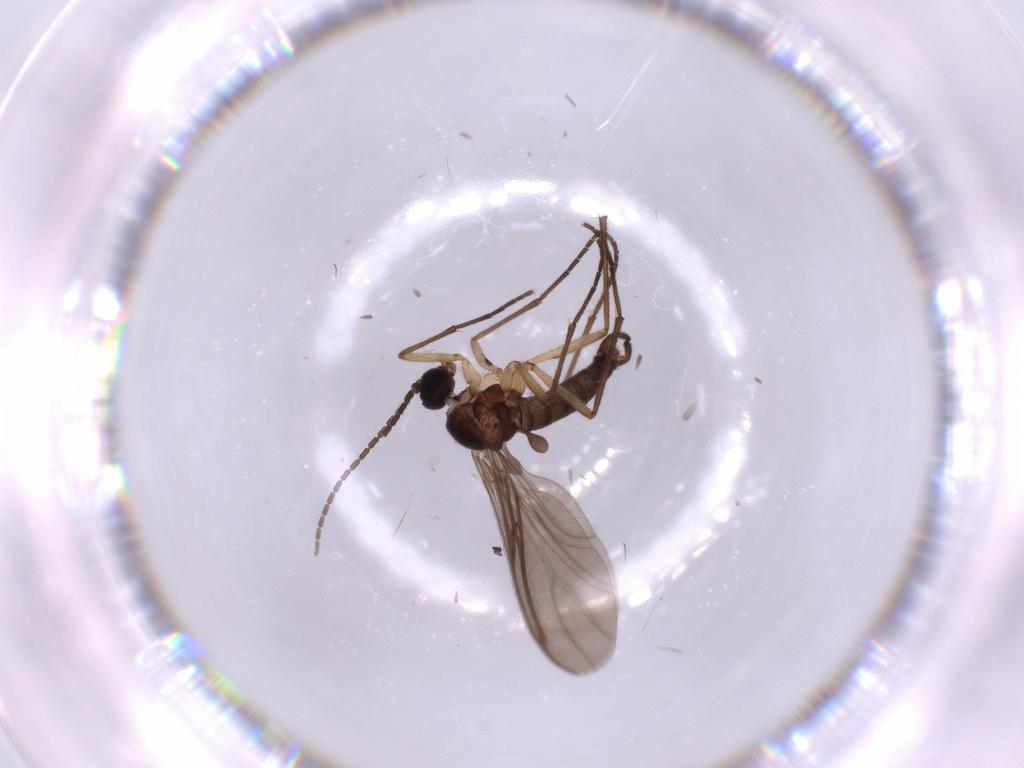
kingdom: Animalia
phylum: Arthropoda
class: Insecta
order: Diptera
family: Sciaridae
